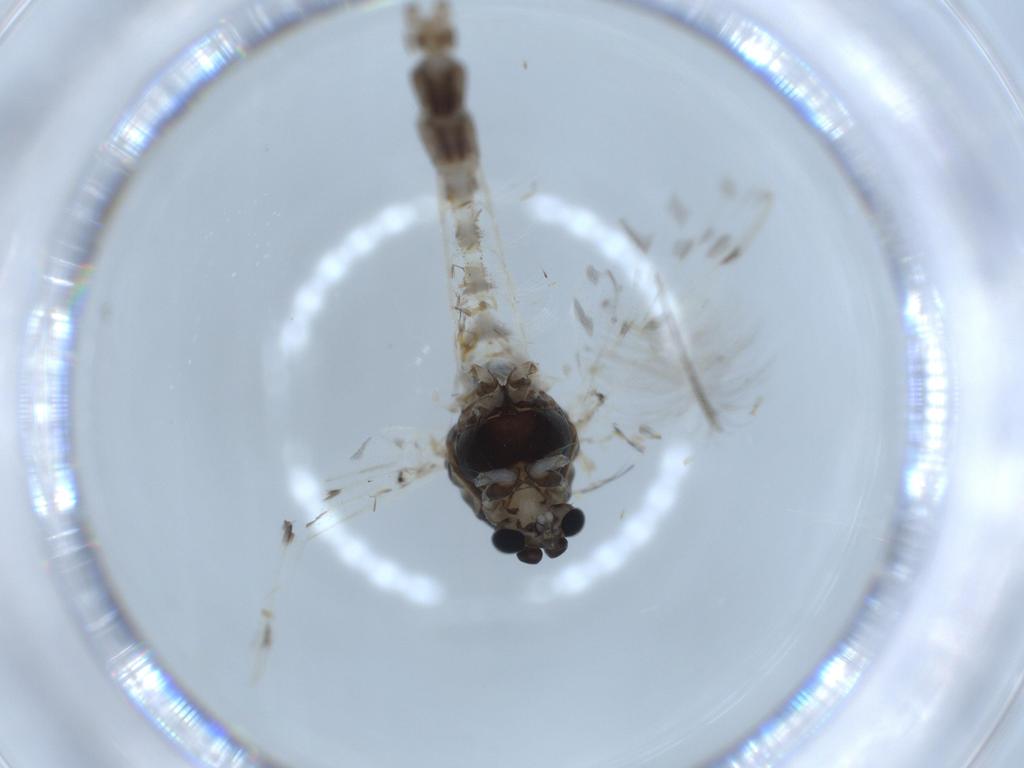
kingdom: Animalia
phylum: Arthropoda
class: Insecta
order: Diptera
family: Chironomidae
